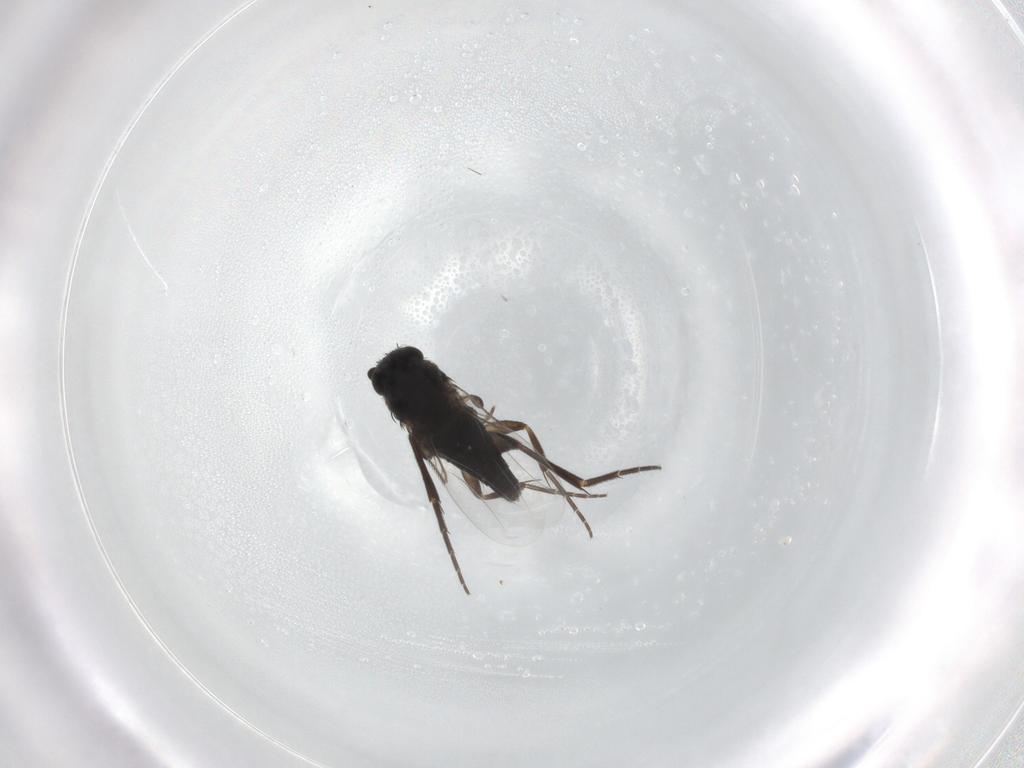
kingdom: Animalia
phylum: Arthropoda
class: Insecta
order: Diptera
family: Phoridae
